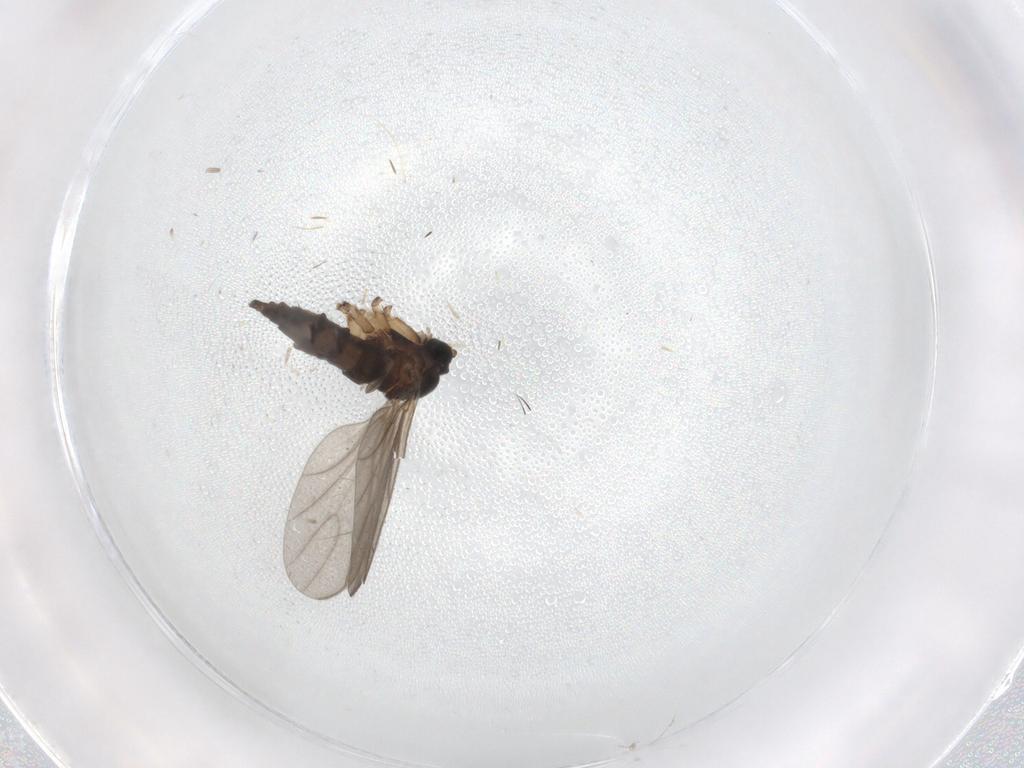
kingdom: Animalia
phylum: Arthropoda
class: Insecta
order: Diptera
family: Sciaridae
